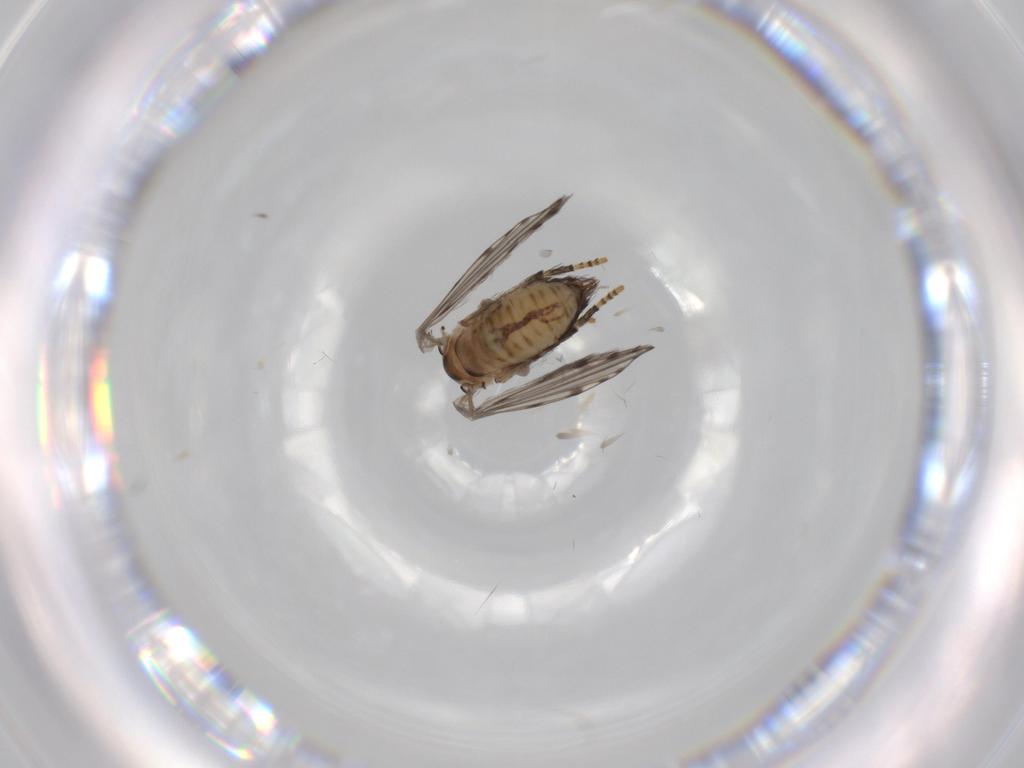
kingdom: Animalia
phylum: Arthropoda
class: Insecta
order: Diptera
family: Psychodidae
